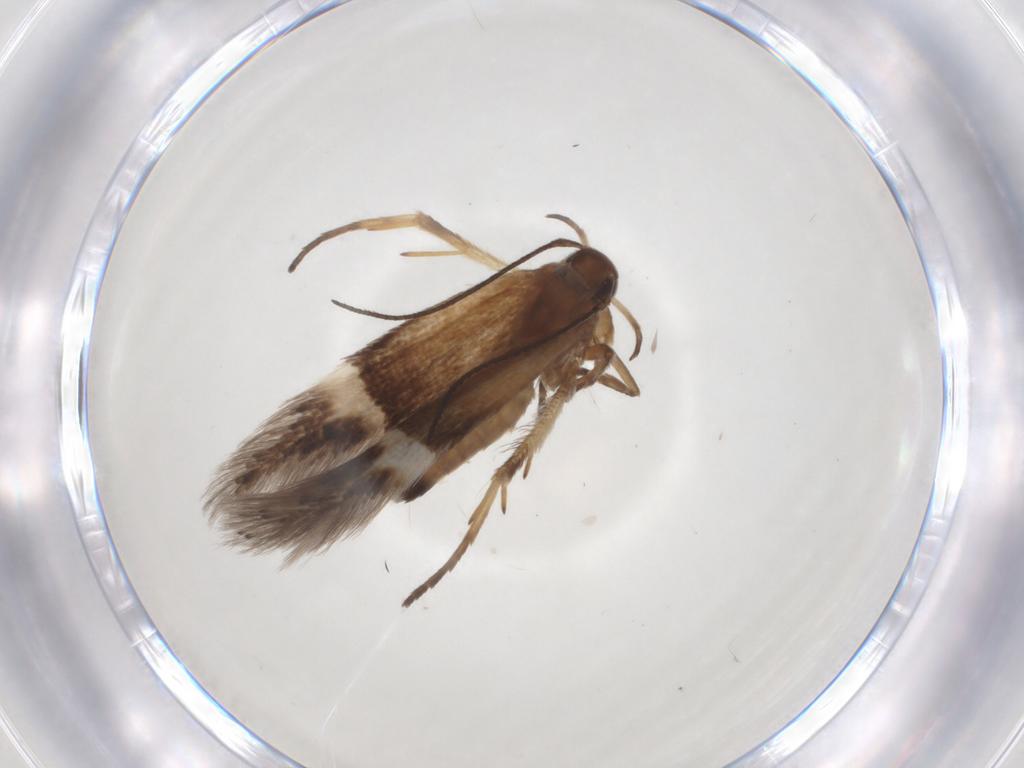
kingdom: Animalia
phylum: Arthropoda
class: Insecta
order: Lepidoptera
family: Gelechiidae
